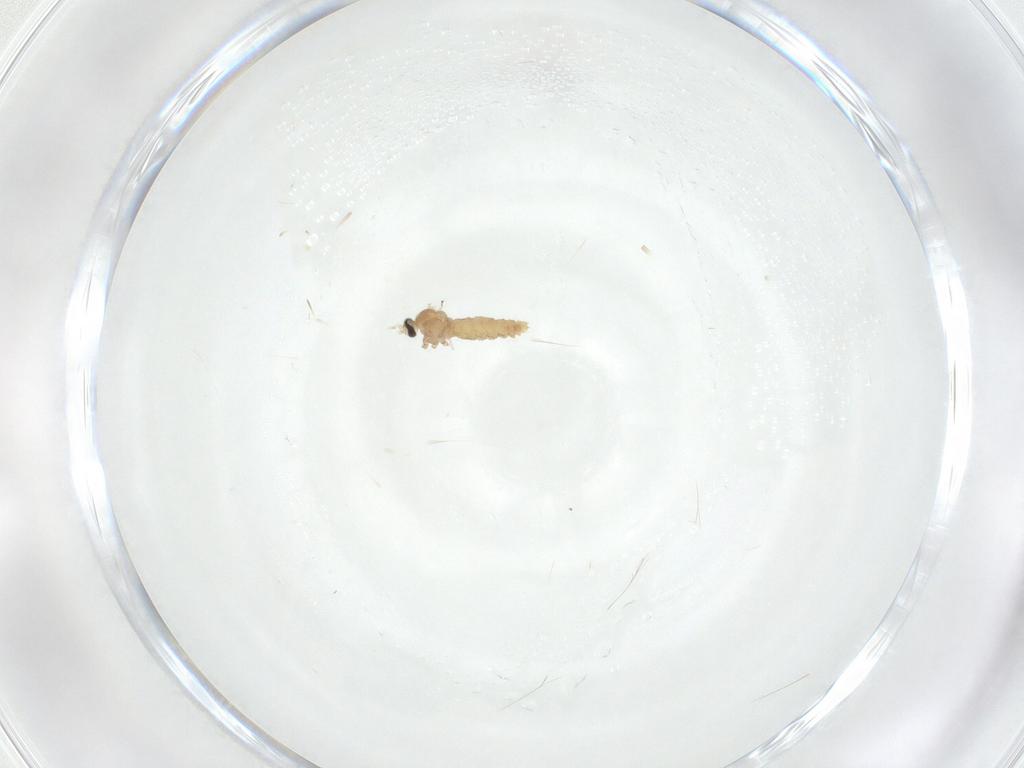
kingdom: Animalia
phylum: Arthropoda
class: Insecta
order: Diptera
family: Cecidomyiidae
